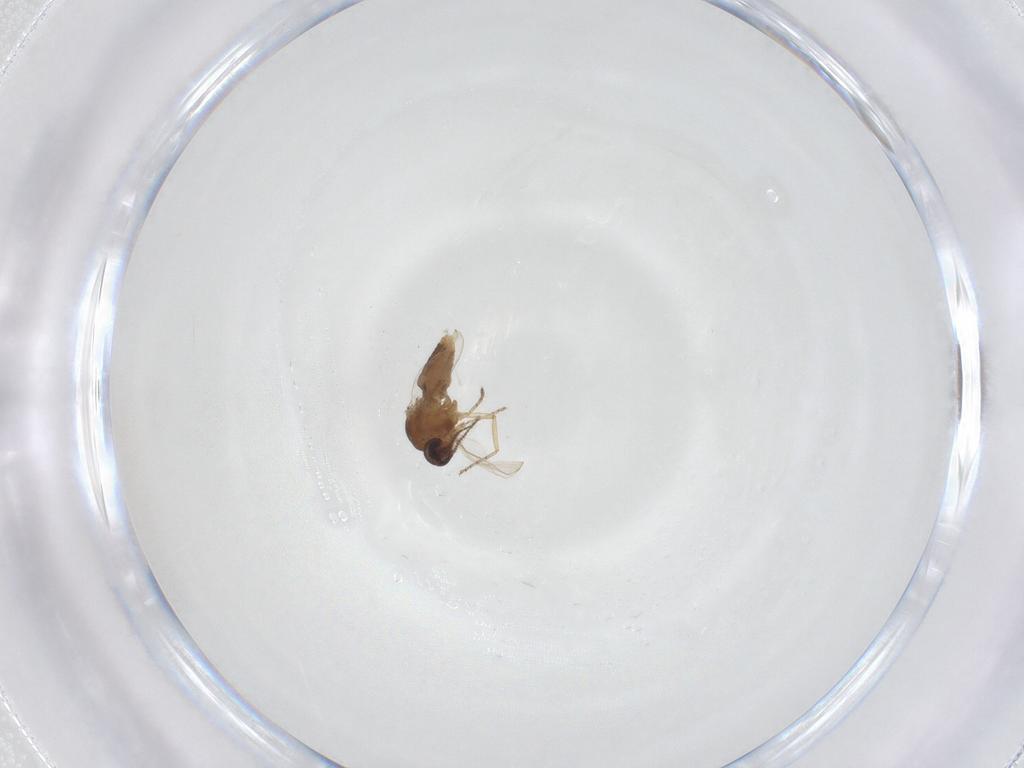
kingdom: Animalia
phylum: Arthropoda
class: Insecta
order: Diptera
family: Ceratopogonidae
